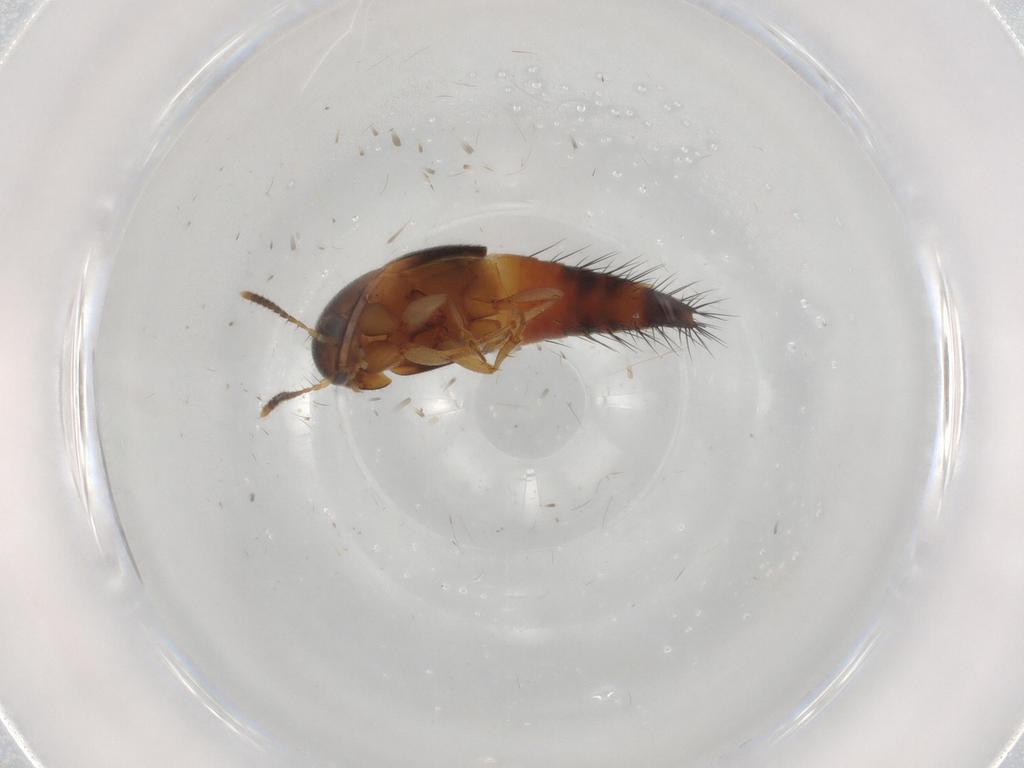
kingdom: Animalia
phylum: Arthropoda
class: Insecta
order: Coleoptera
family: Staphylinidae
